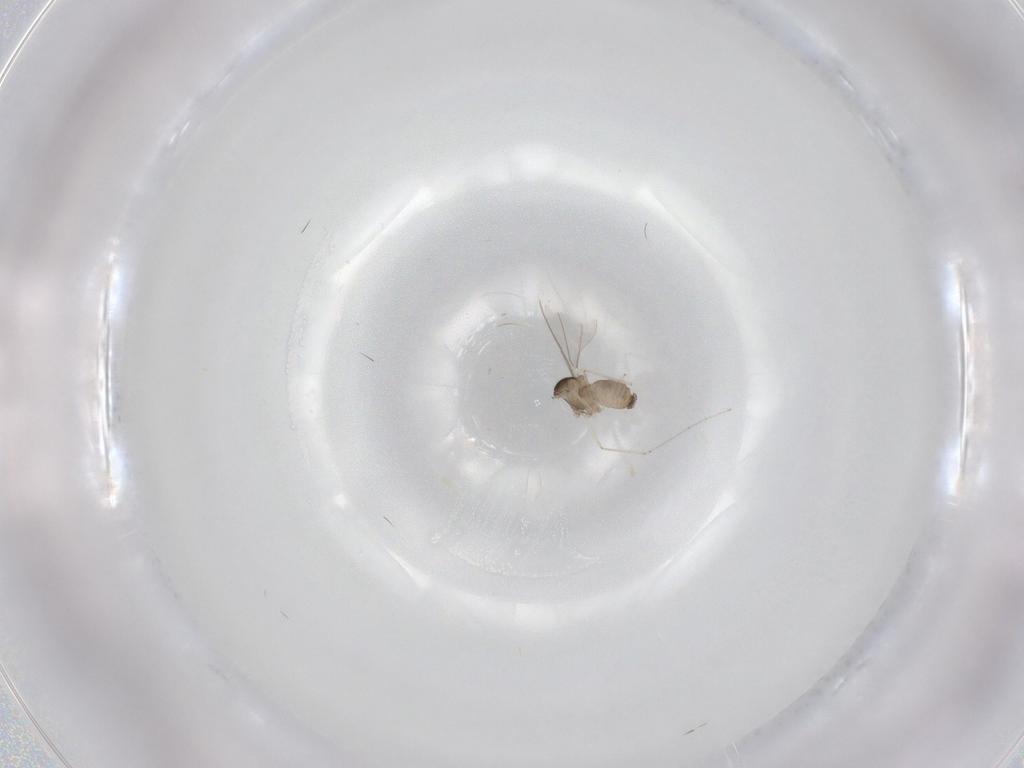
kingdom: Animalia
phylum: Arthropoda
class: Insecta
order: Diptera
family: Cecidomyiidae
